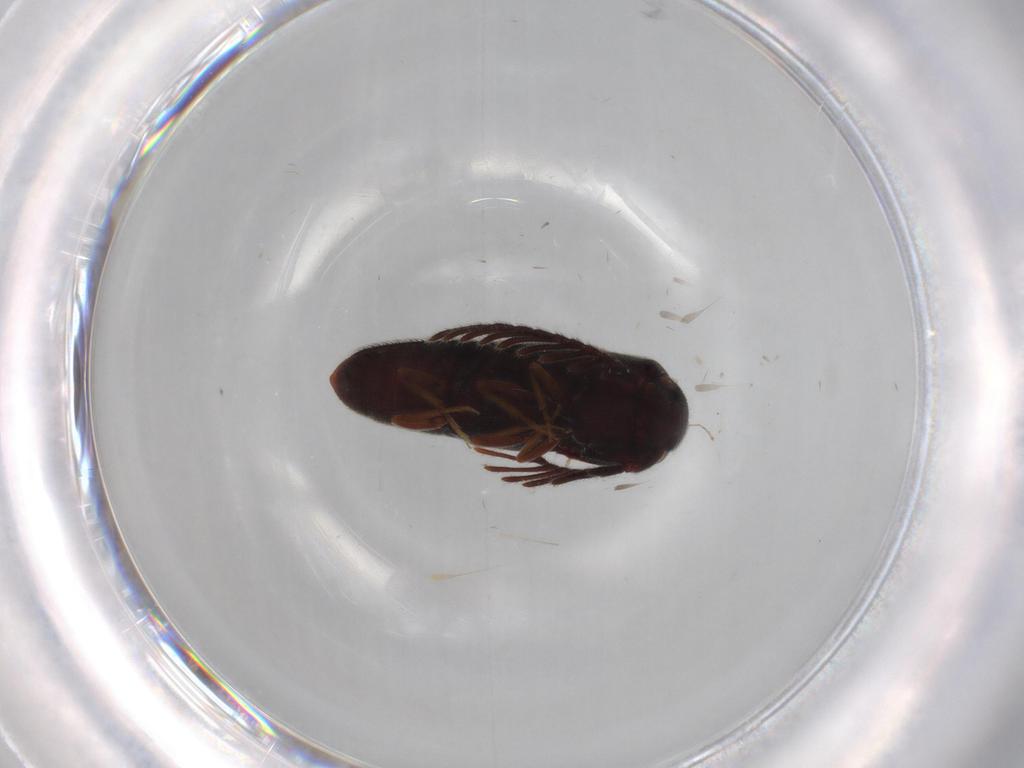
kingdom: Animalia
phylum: Arthropoda
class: Insecta
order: Coleoptera
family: Eucnemidae
